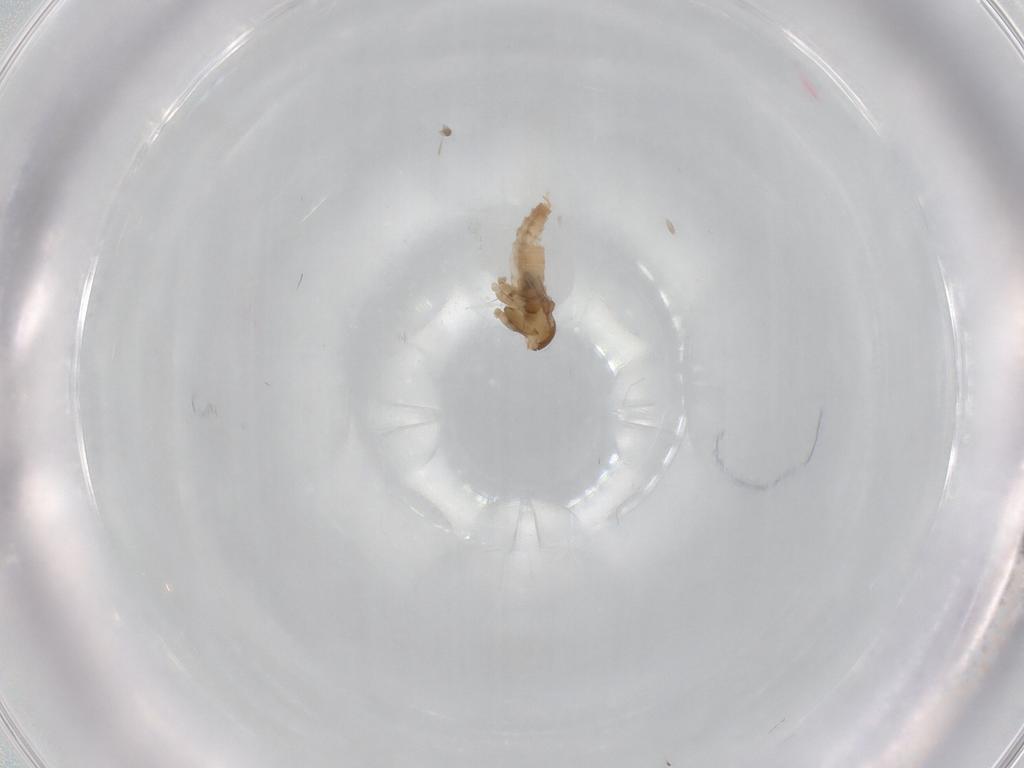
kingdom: Animalia
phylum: Arthropoda
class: Insecta
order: Diptera
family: Cecidomyiidae
